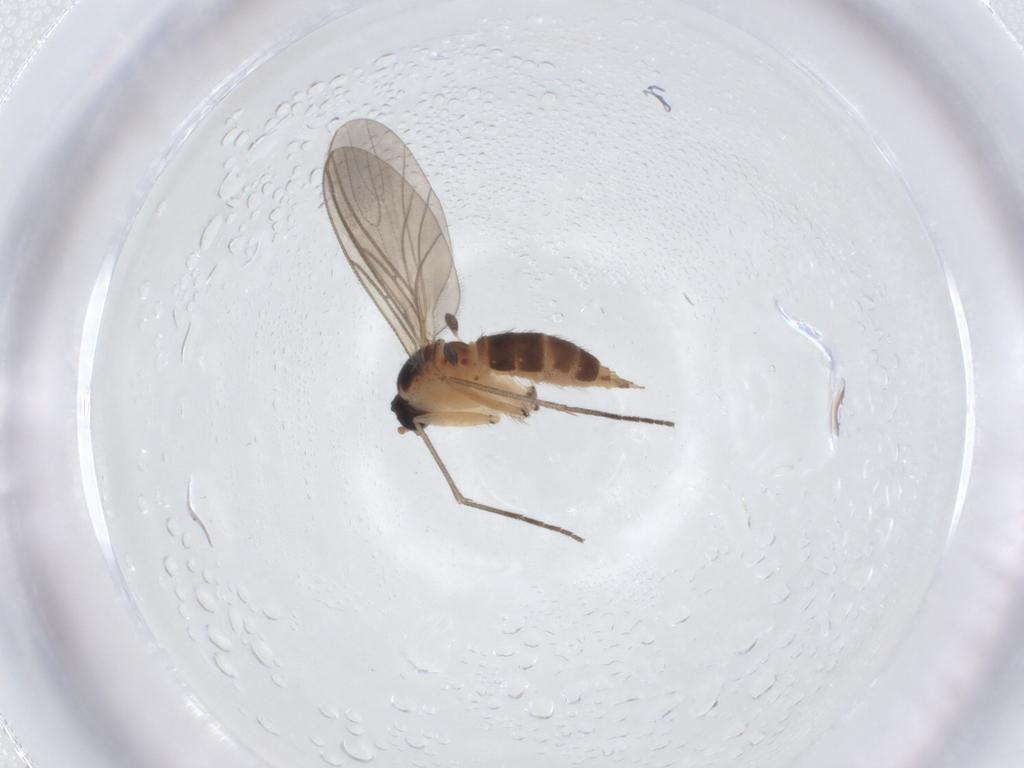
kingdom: Animalia
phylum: Arthropoda
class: Insecta
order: Diptera
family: Sciaridae
